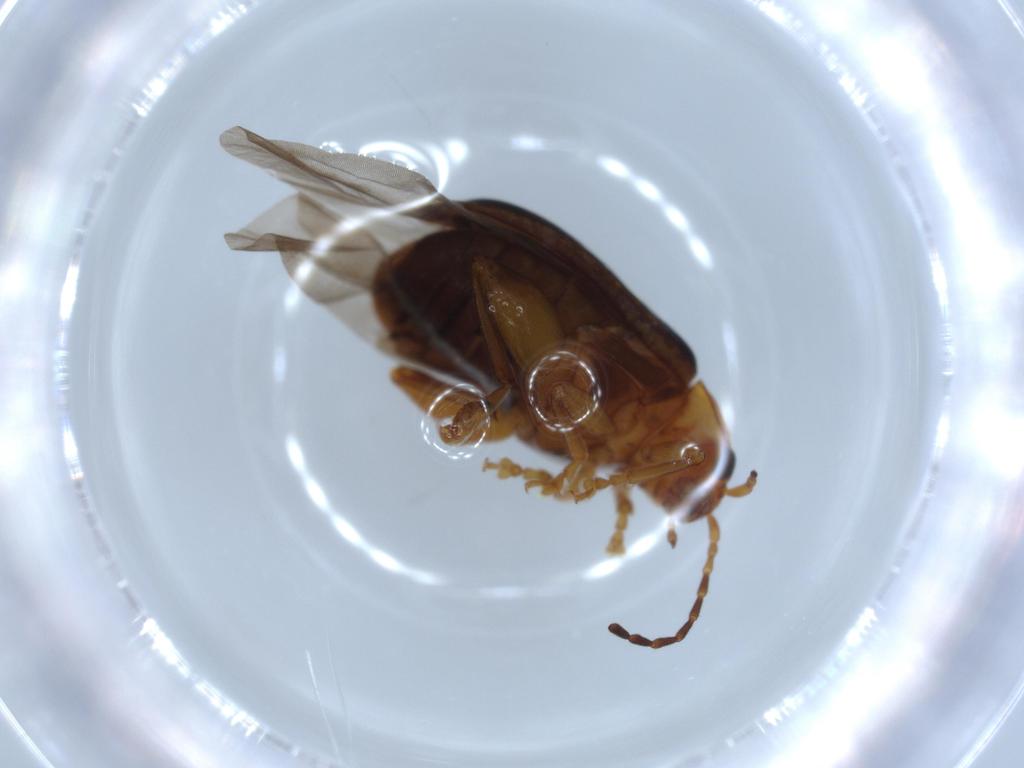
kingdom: Animalia
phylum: Arthropoda
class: Insecta
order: Coleoptera
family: Chrysomelidae
